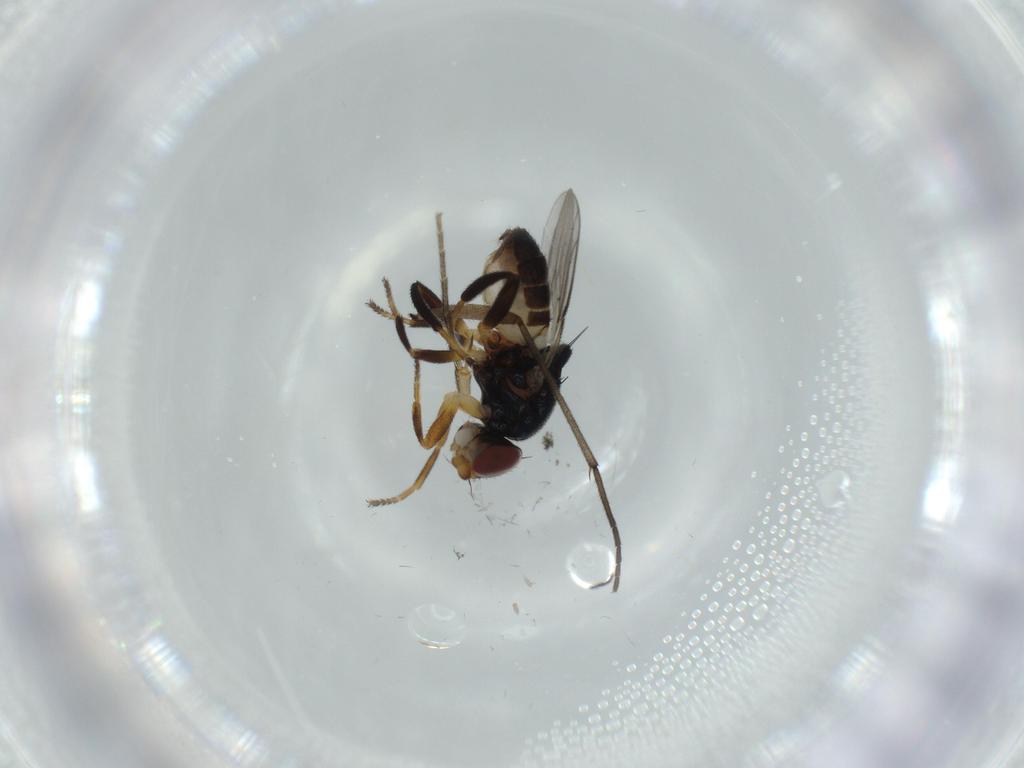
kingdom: Animalia
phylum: Arthropoda
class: Insecta
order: Diptera
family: Chloropidae
